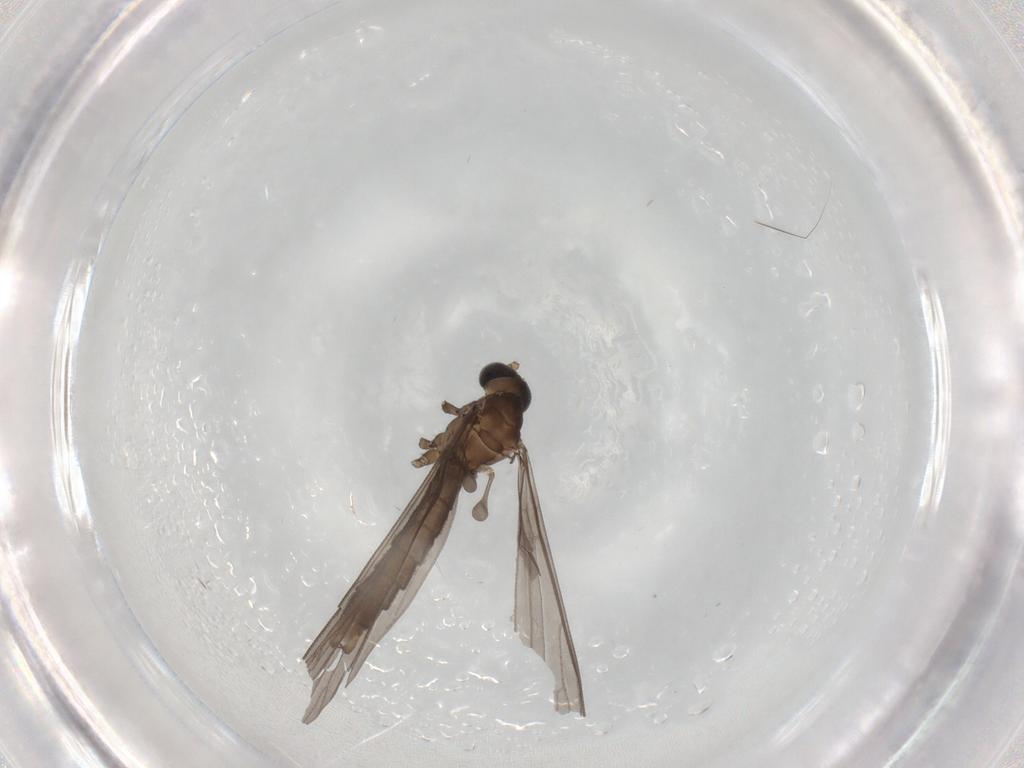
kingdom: Animalia
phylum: Arthropoda
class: Insecta
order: Diptera
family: Limoniidae
